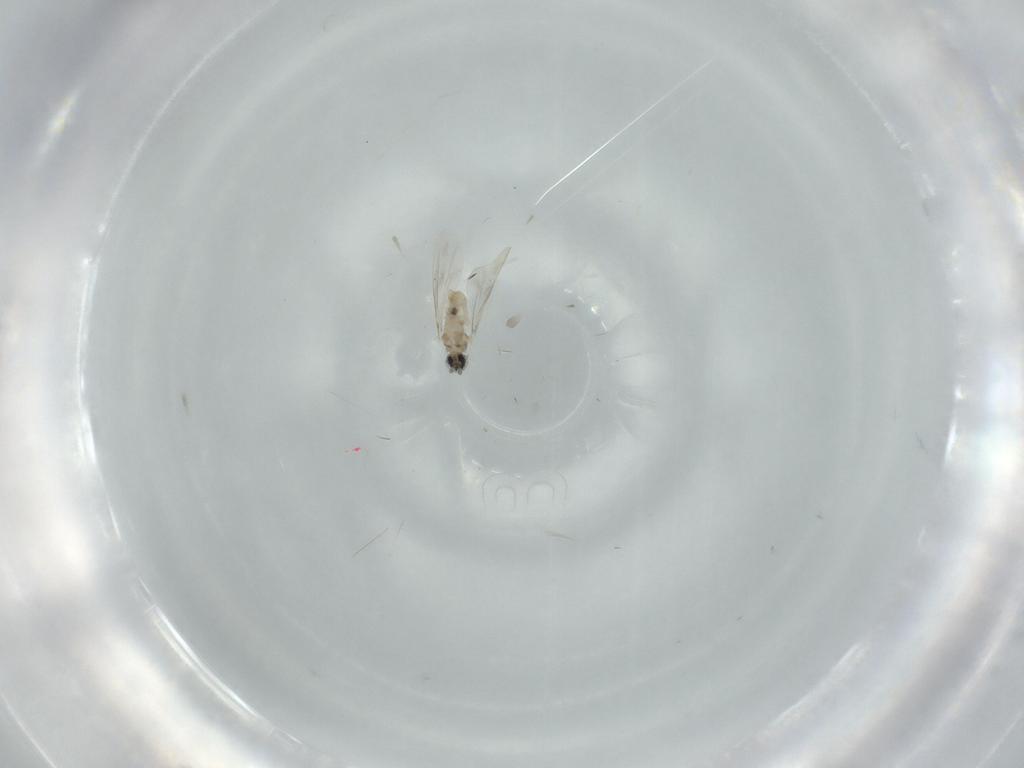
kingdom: Animalia
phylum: Arthropoda
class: Insecta
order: Diptera
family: Cecidomyiidae
